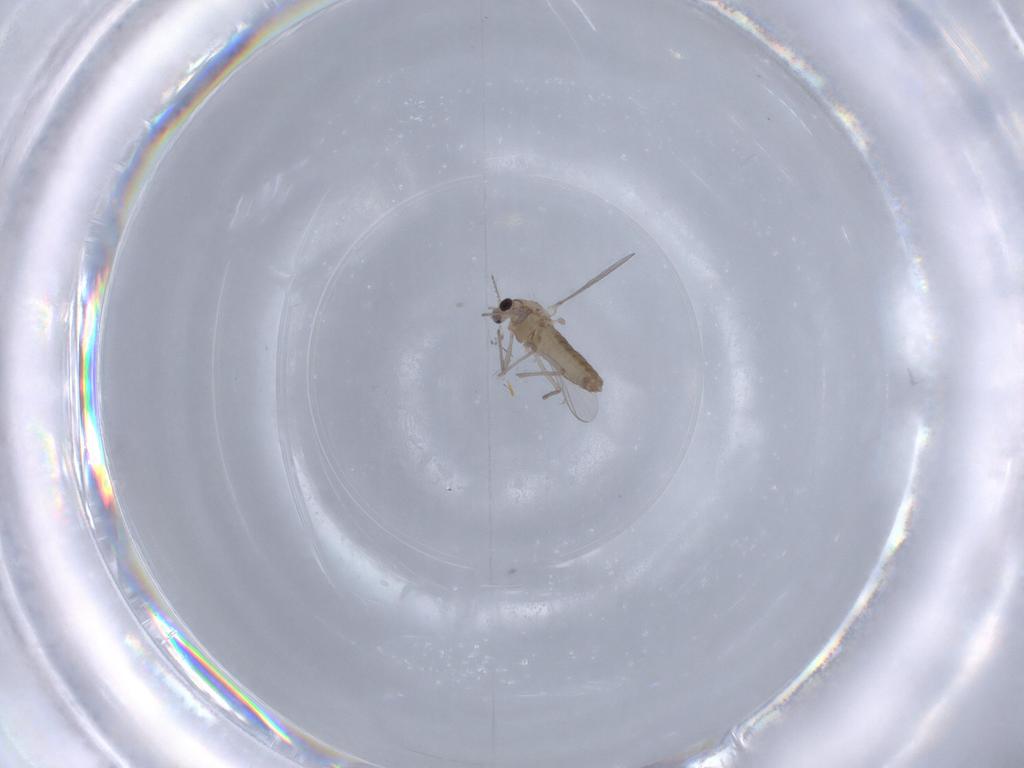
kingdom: Animalia
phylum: Arthropoda
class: Insecta
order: Diptera
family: Chironomidae
